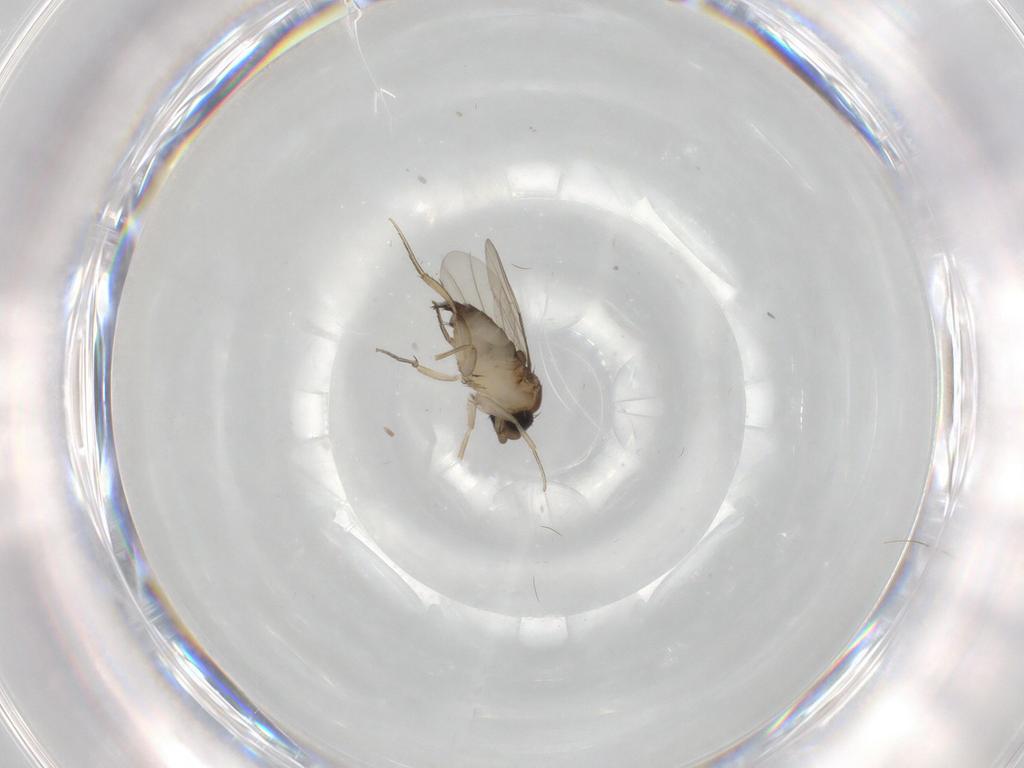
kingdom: Animalia
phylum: Arthropoda
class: Insecta
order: Diptera
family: Phoridae
